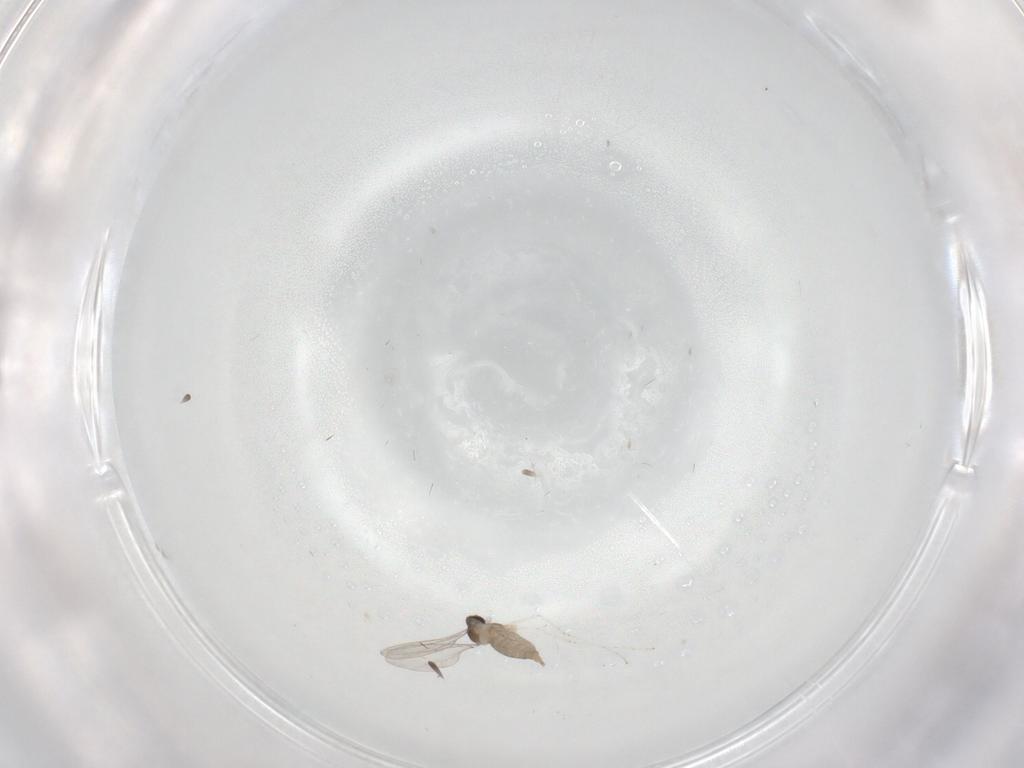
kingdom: Animalia
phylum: Arthropoda
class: Insecta
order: Diptera
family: Cecidomyiidae
